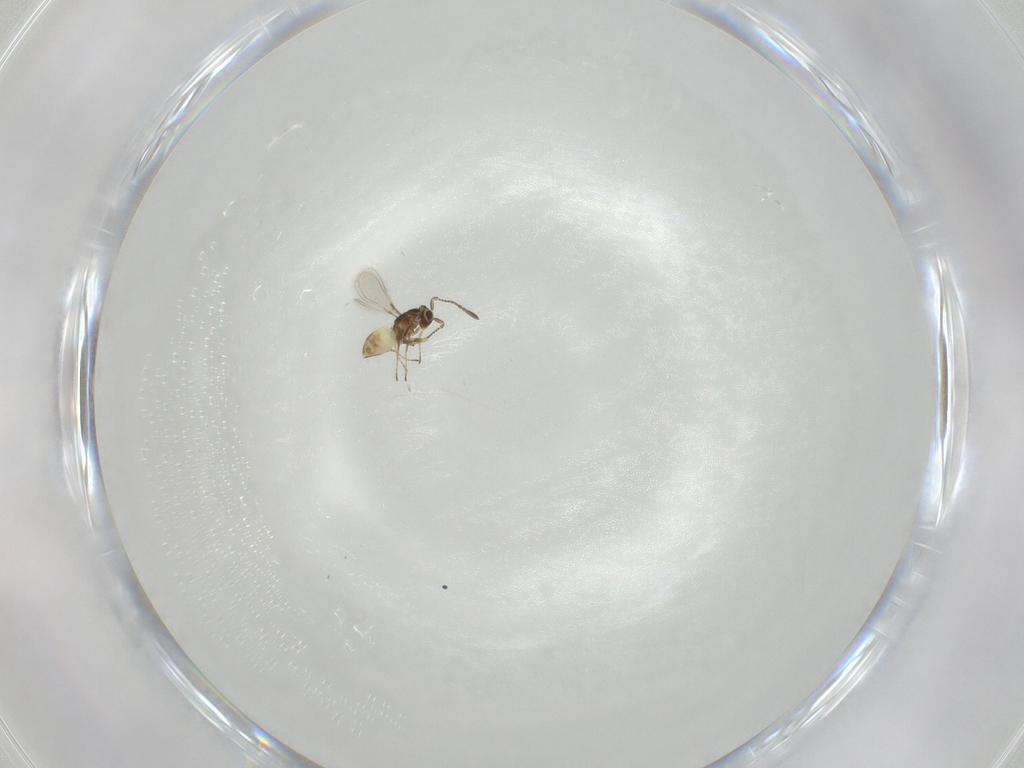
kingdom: Animalia
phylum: Arthropoda
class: Insecta
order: Hymenoptera
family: Mymaridae
